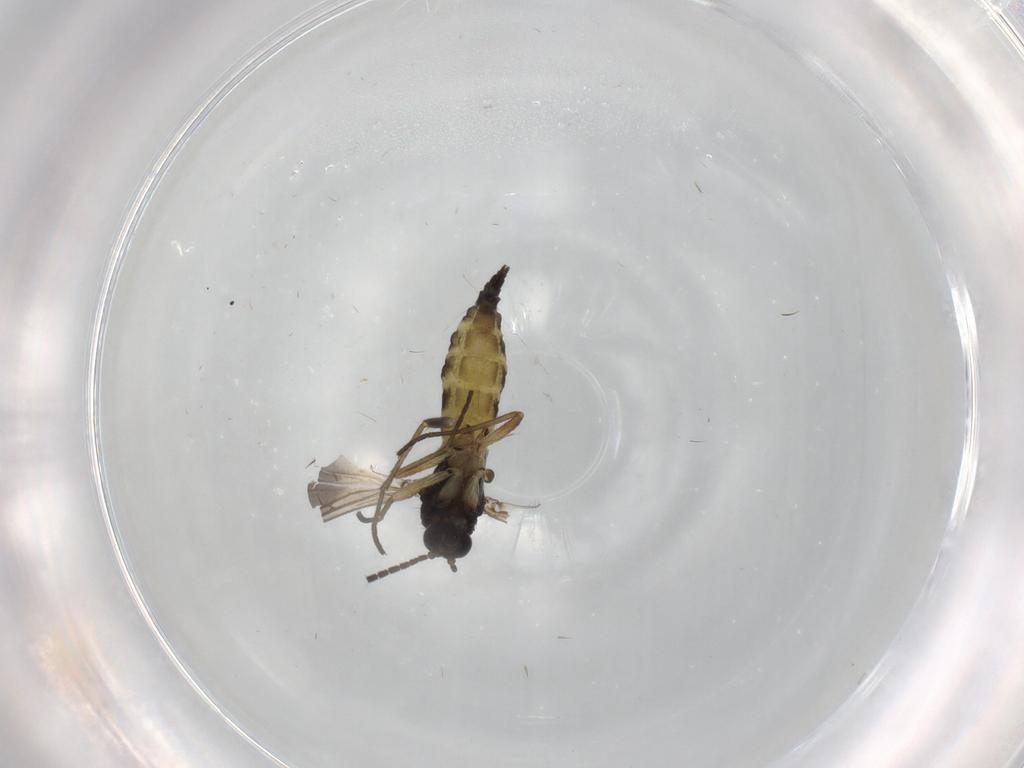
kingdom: Animalia
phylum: Arthropoda
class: Insecta
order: Diptera
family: Sciaridae
